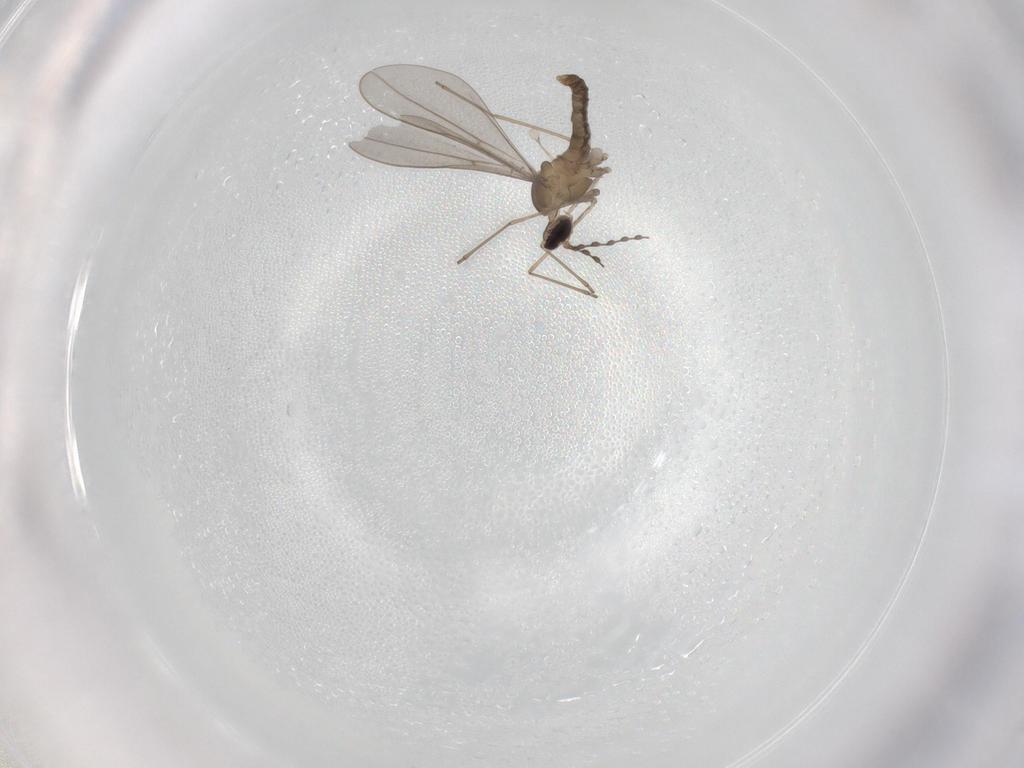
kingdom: Animalia
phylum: Arthropoda
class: Insecta
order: Diptera
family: Cecidomyiidae
